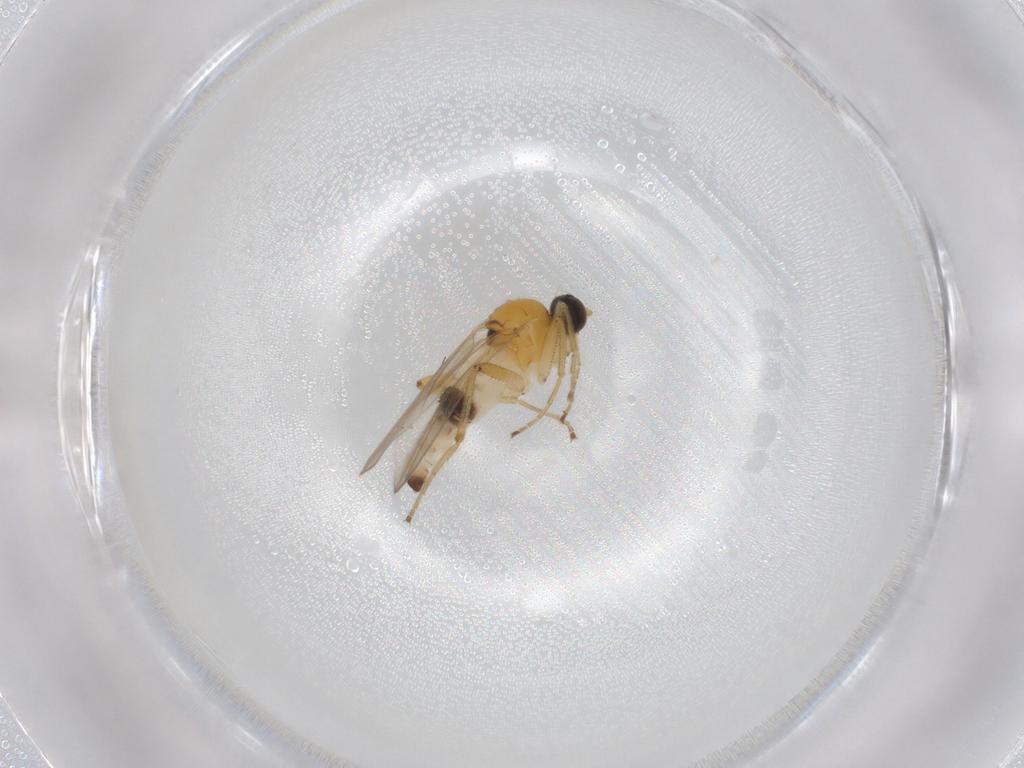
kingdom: Animalia
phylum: Arthropoda
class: Insecta
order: Diptera
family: Hybotidae
